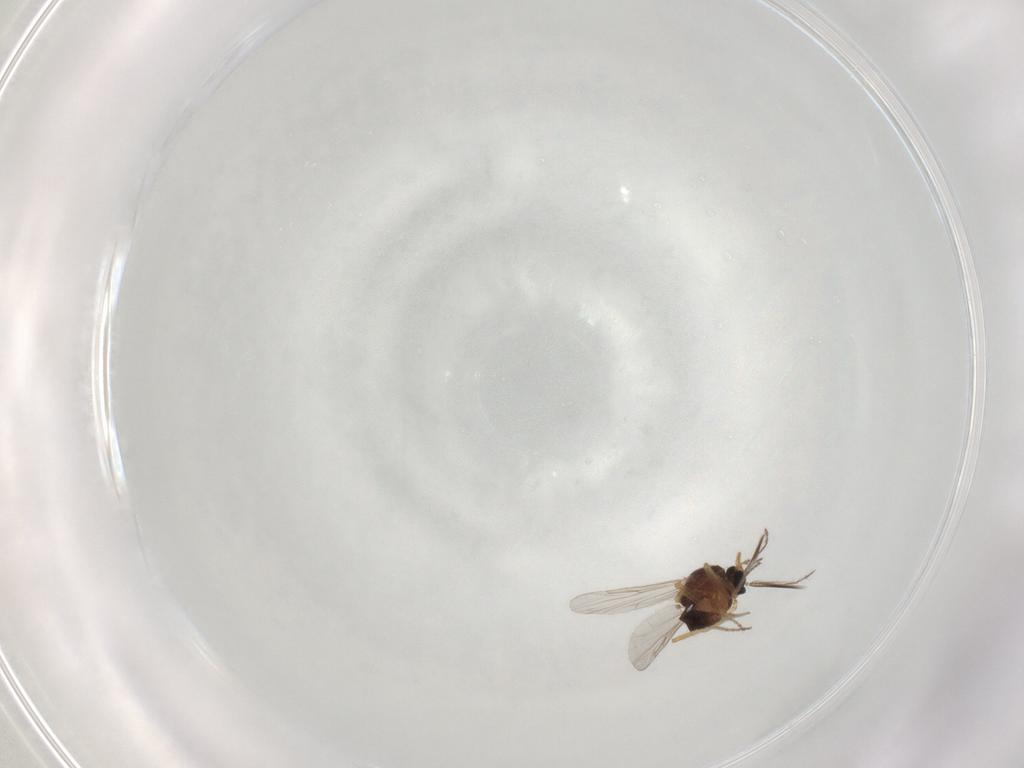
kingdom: Animalia
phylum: Arthropoda
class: Insecta
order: Diptera
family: Ceratopogonidae
